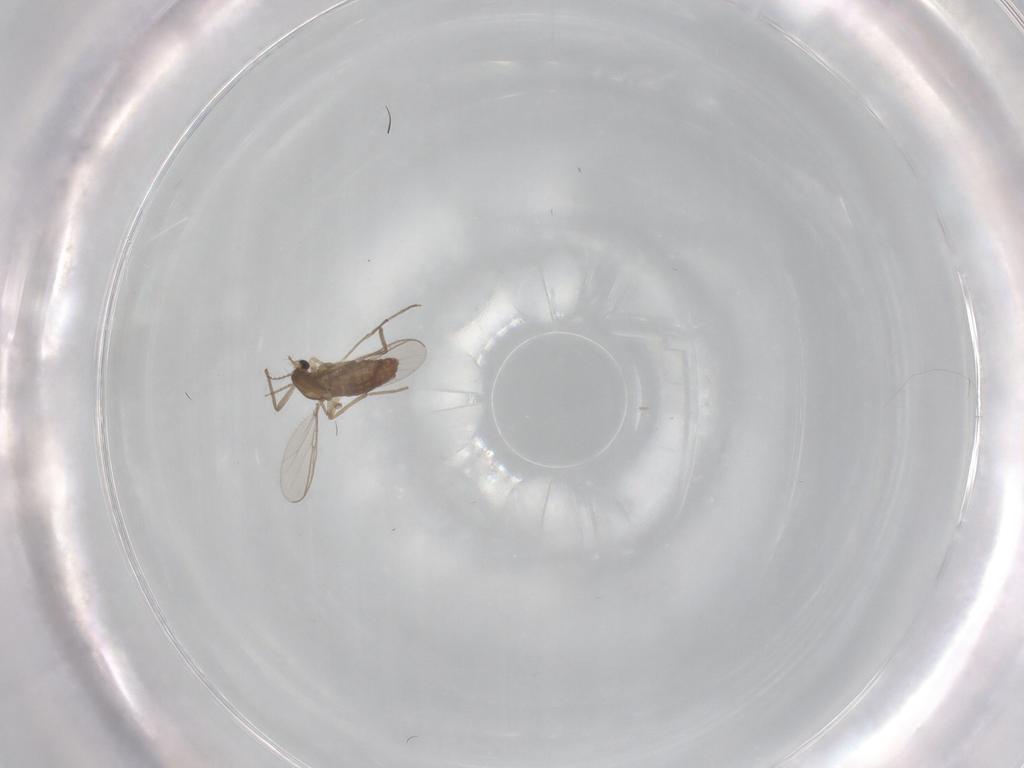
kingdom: Animalia
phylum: Arthropoda
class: Insecta
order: Diptera
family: Chironomidae
